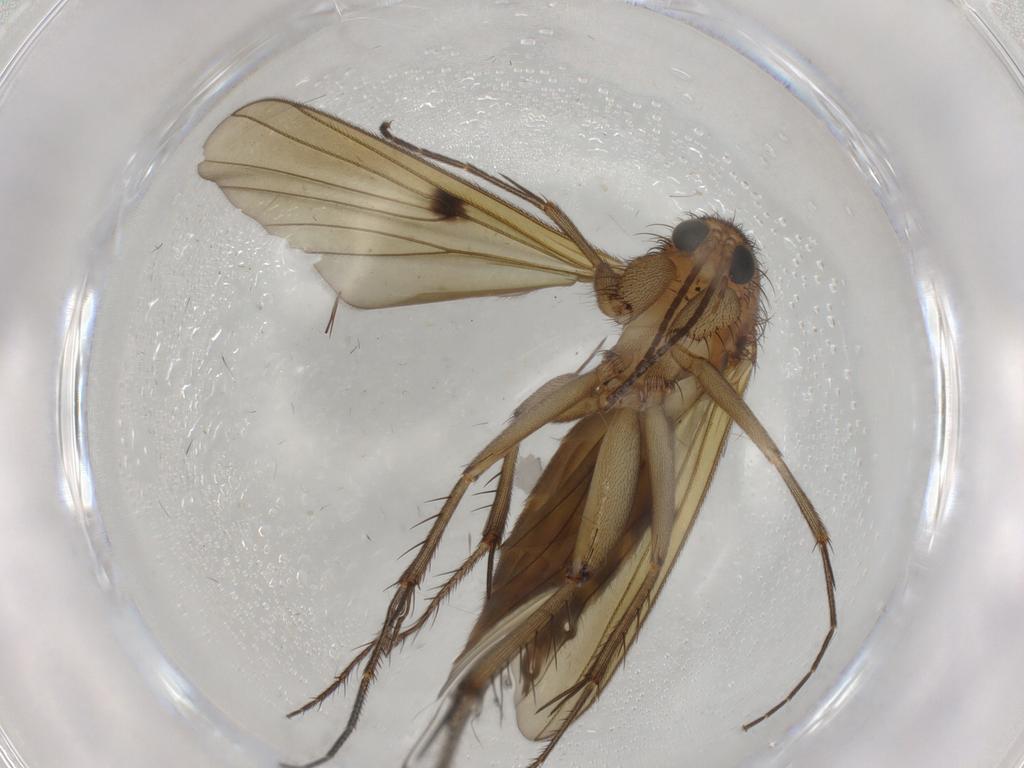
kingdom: Animalia
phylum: Arthropoda
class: Insecta
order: Diptera
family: Mycetophilidae
